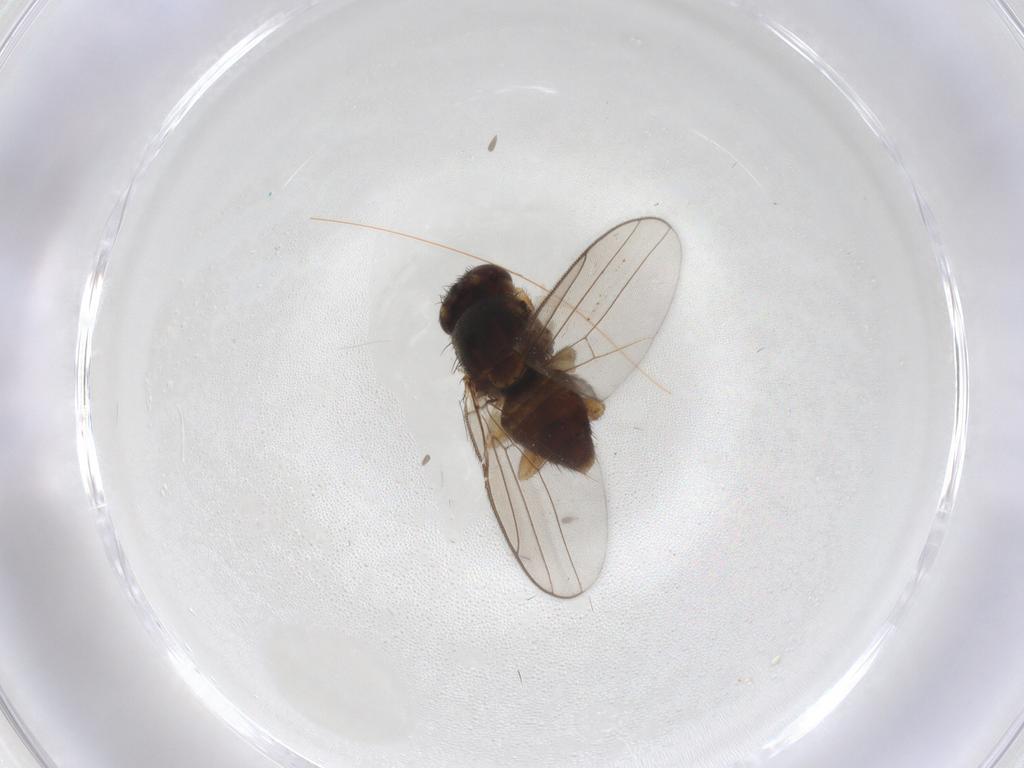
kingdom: Animalia
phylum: Arthropoda
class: Insecta
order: Diptera
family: Chloropidae
